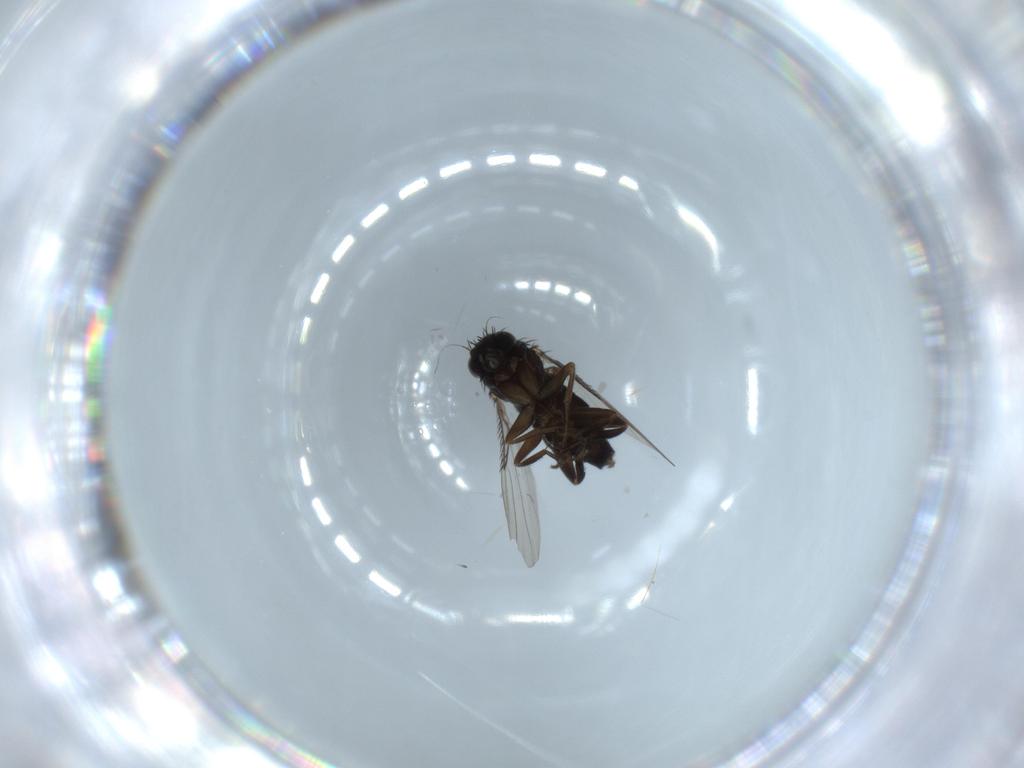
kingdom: Animalia
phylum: Arthropoda
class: Insecta
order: Diptera
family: Phoridae
